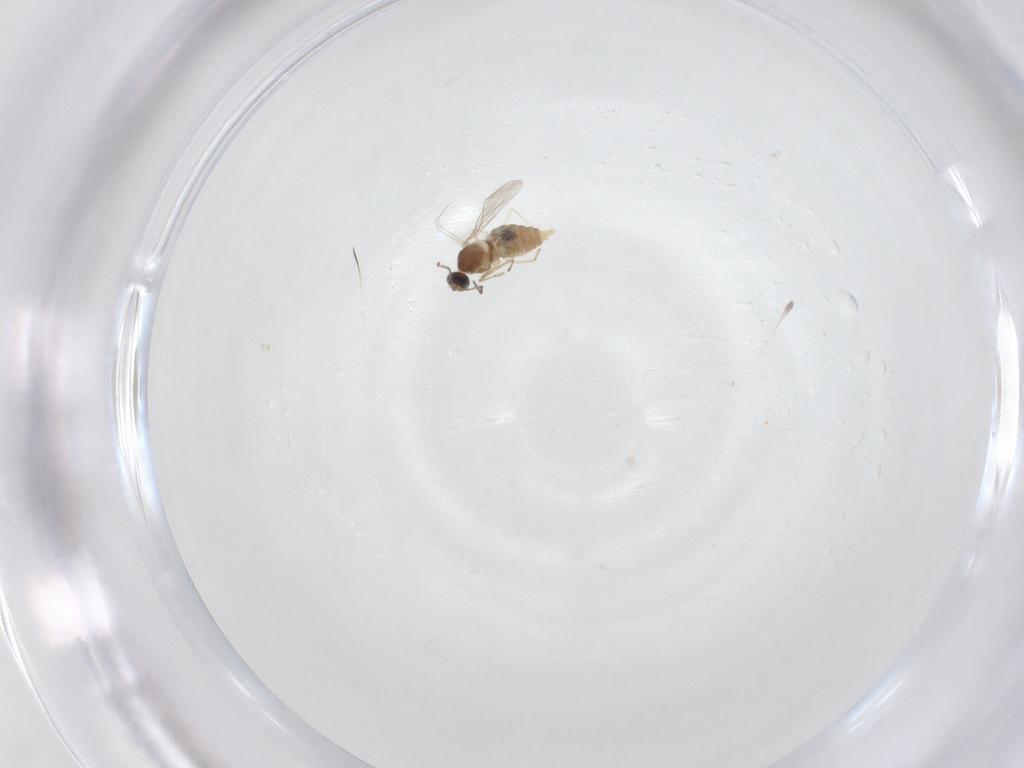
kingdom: Animalia
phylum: Arthropoda
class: Insecta
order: Diptera
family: Cecidomyiidae
